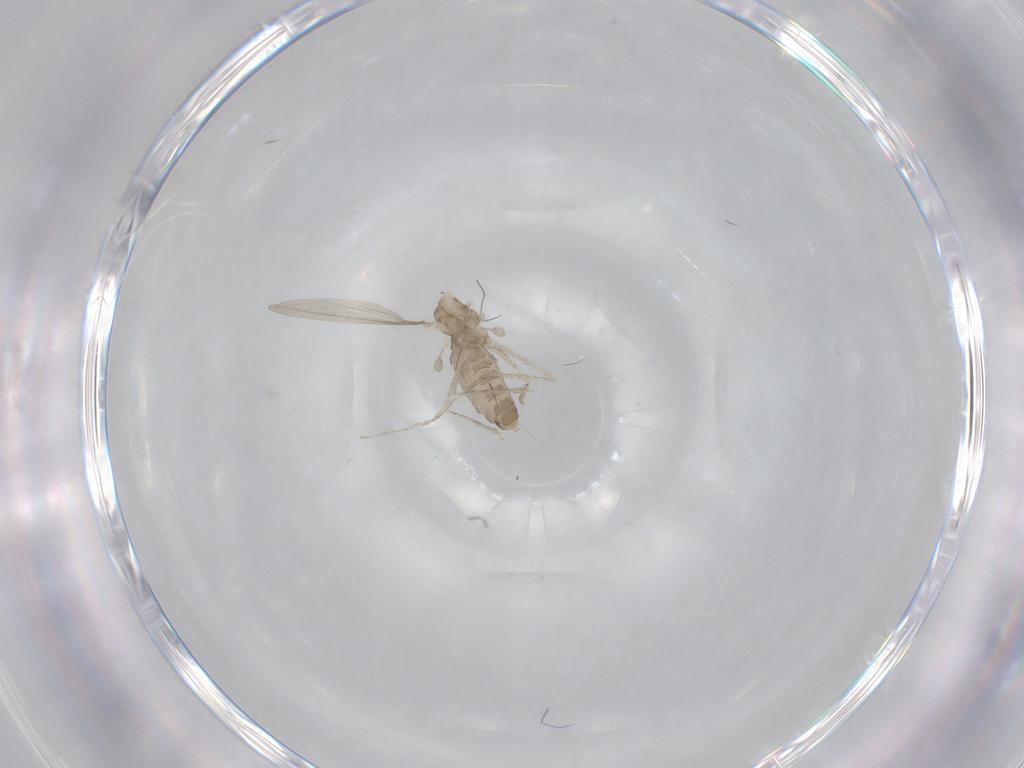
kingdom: Animalia
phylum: Arthropoda
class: Insecta
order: Diptera
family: Cecidomyiidae
